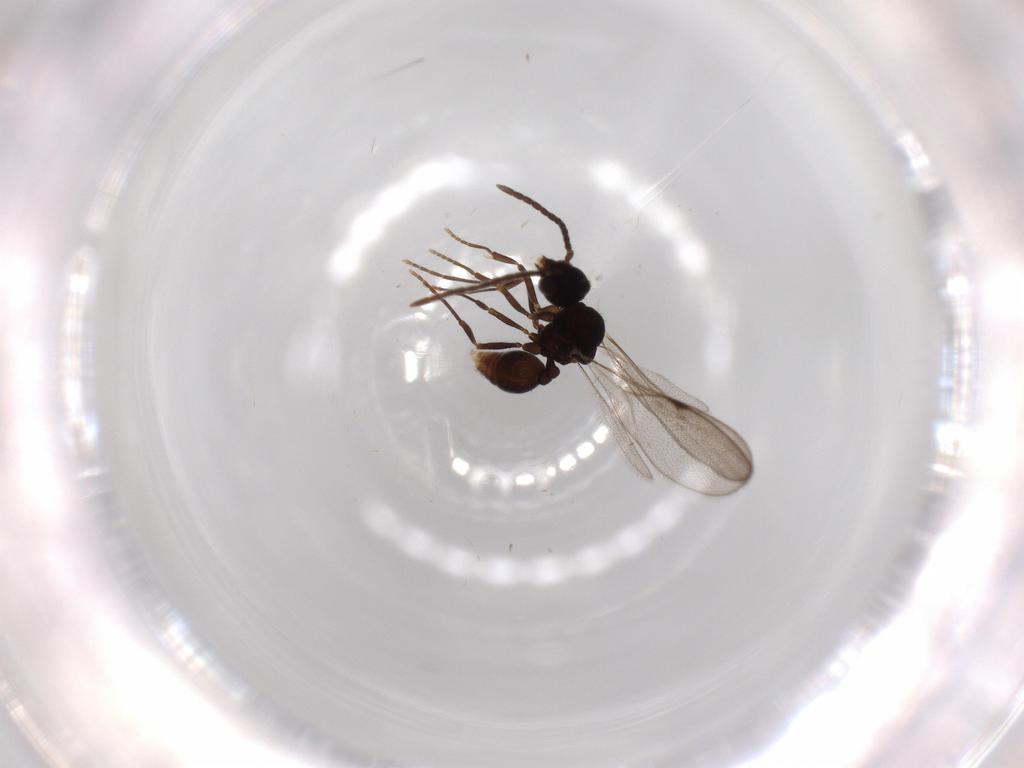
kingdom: Animalia
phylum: Arthropoda
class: Insecta
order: Hymenoptera
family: Formicidae
